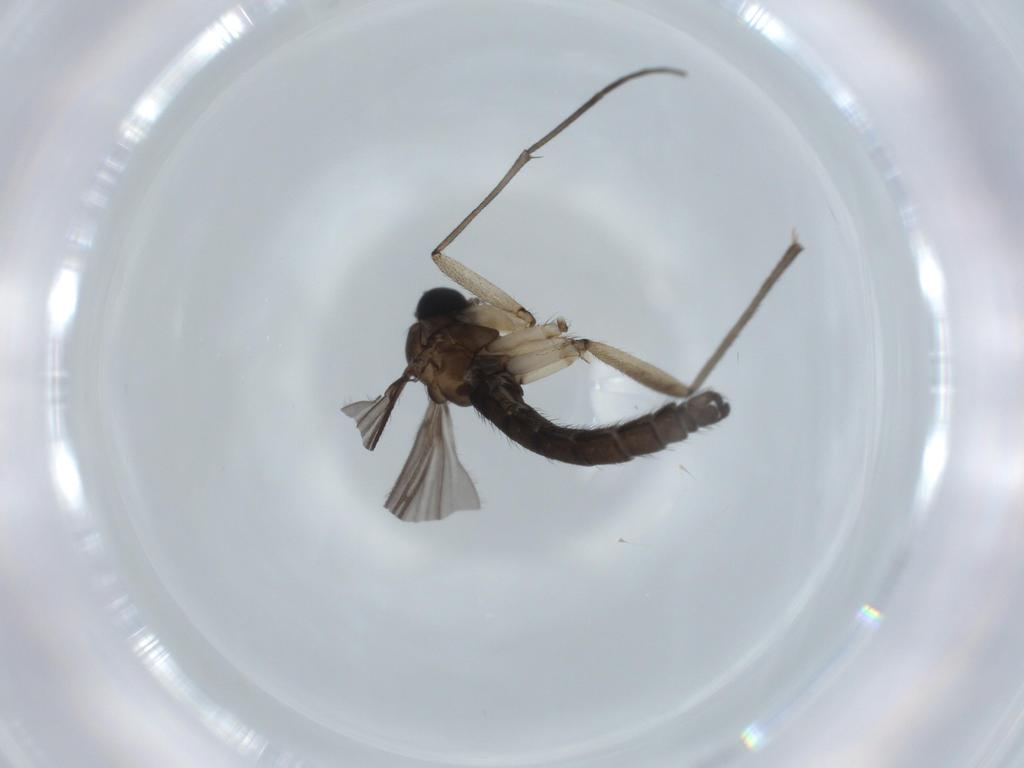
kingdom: Animalia
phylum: Arthropoda
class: Insecta
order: Diptera
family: Sciaridae
